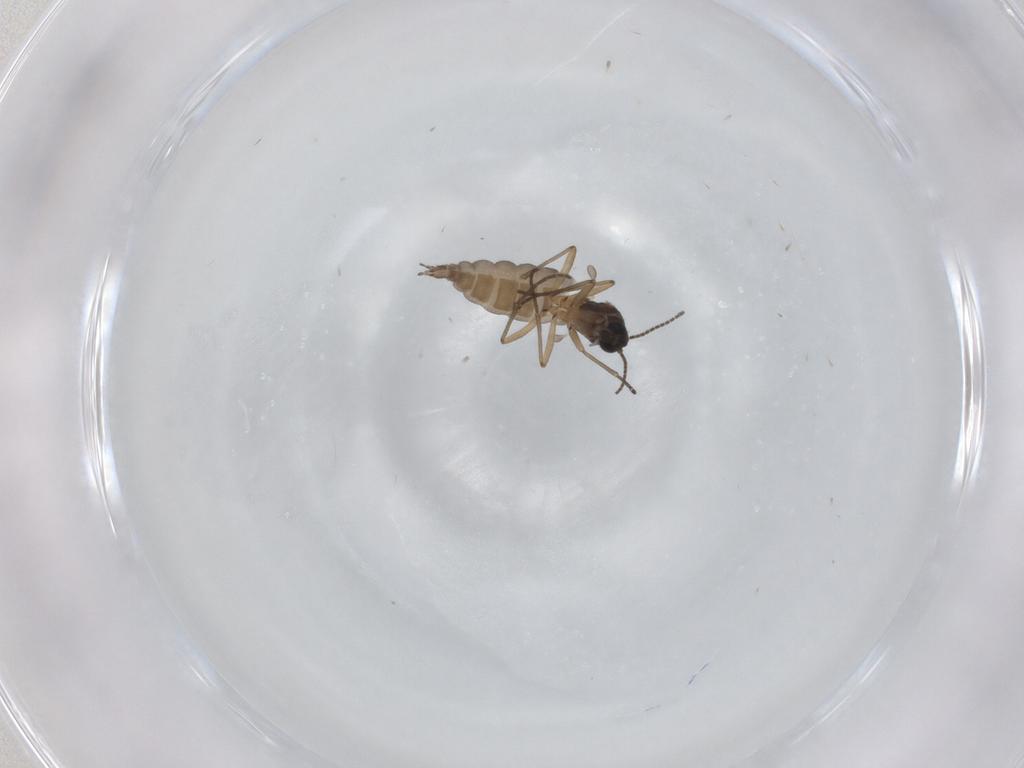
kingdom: Animalia
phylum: Arthropoda
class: Insecta
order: Diptera
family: Sciaridae
